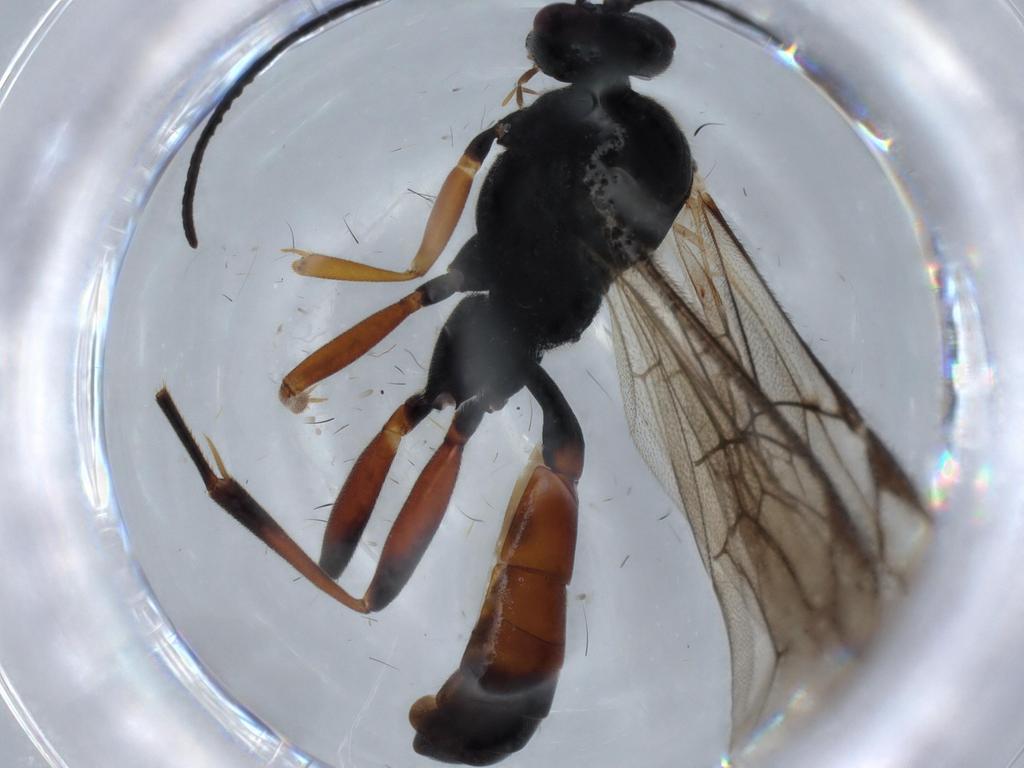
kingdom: Animalia
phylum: Arthropoda
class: Insecta
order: Hymenoptera
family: Ichneumonidae
